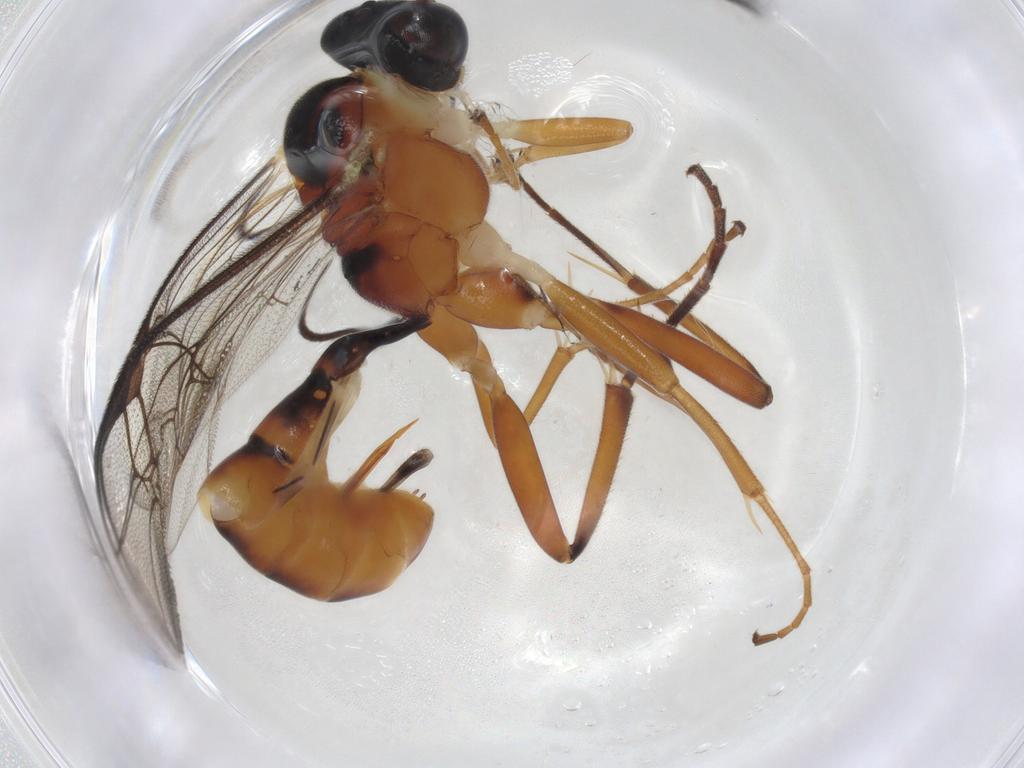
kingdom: Animalia
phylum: Arthropoda
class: Insecta
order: Hymenoptera
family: Ichneumonidae
